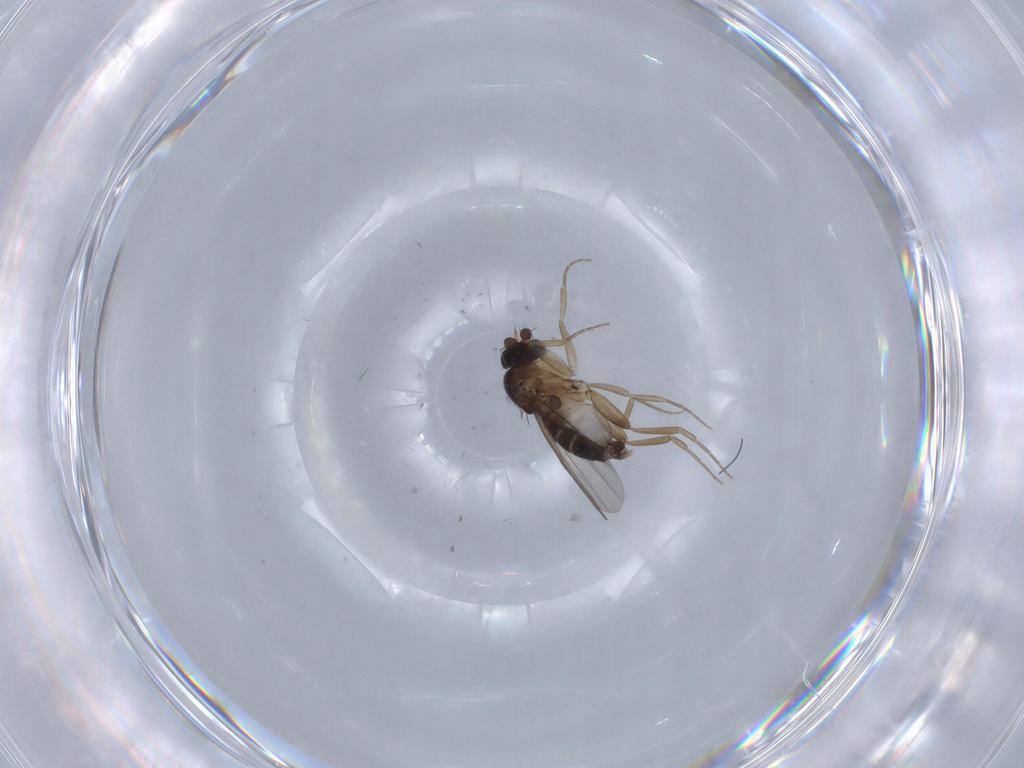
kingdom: Animalia
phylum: Arthropoda
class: Insecta
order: Diptera
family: Phoridae
